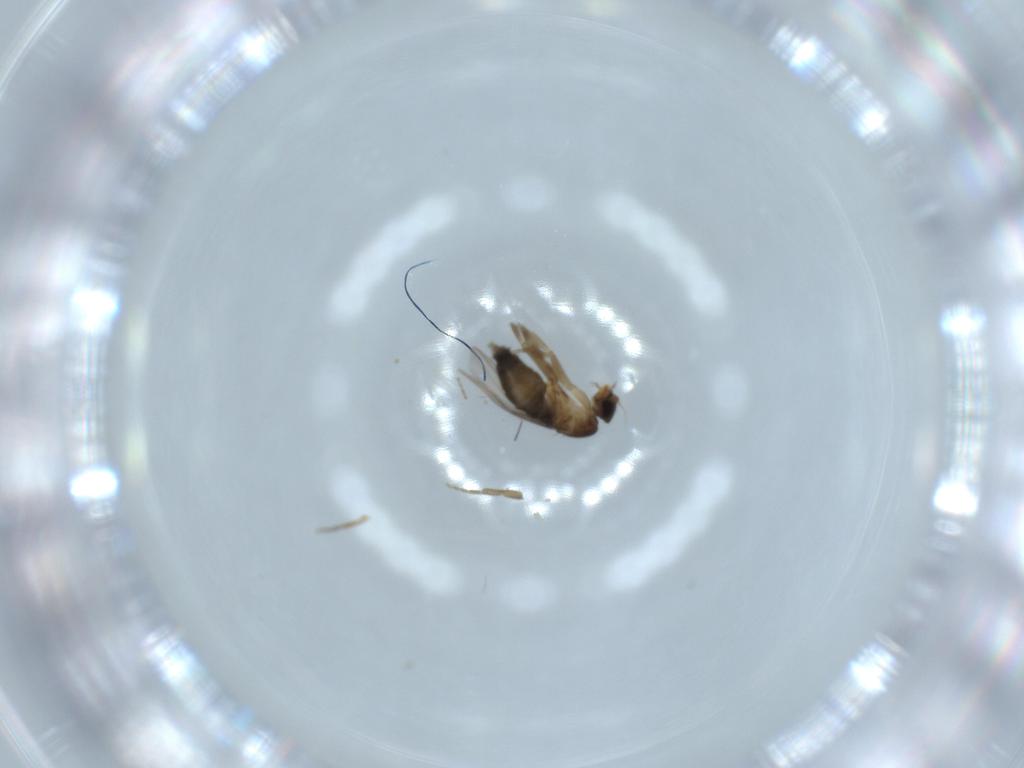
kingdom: Animalia
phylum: Arthropoda
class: Insecta
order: Diptera
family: Phoridae
